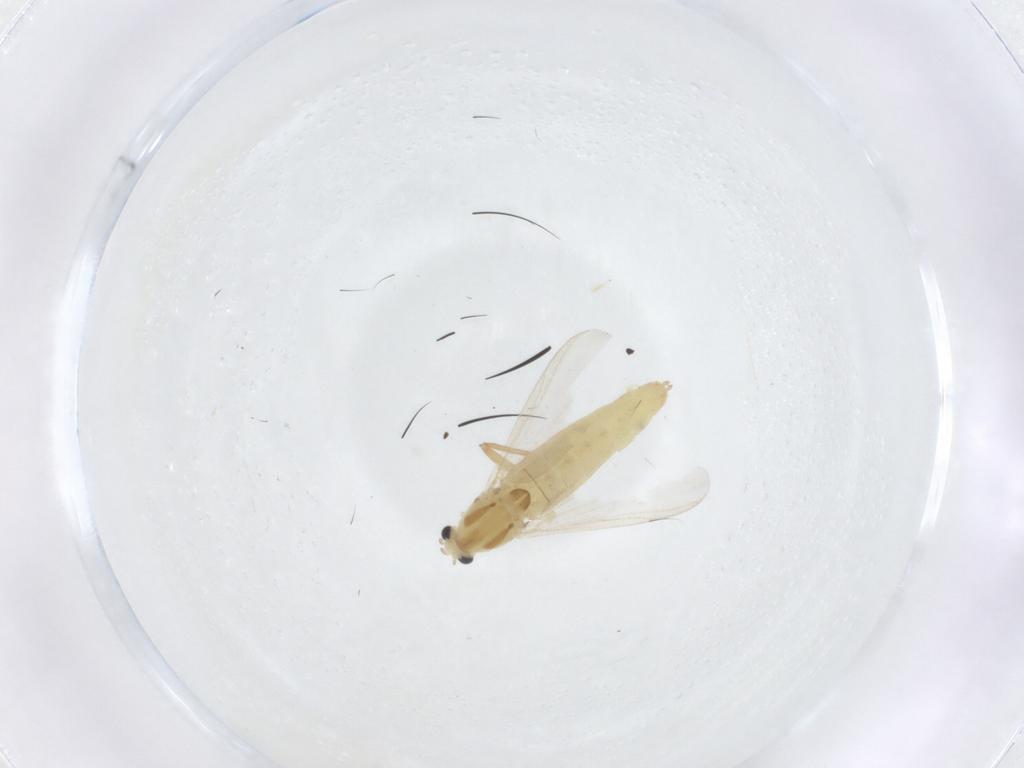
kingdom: Animalia
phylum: Arthropoda
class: Insecta
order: Diptera
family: Chironomidae
